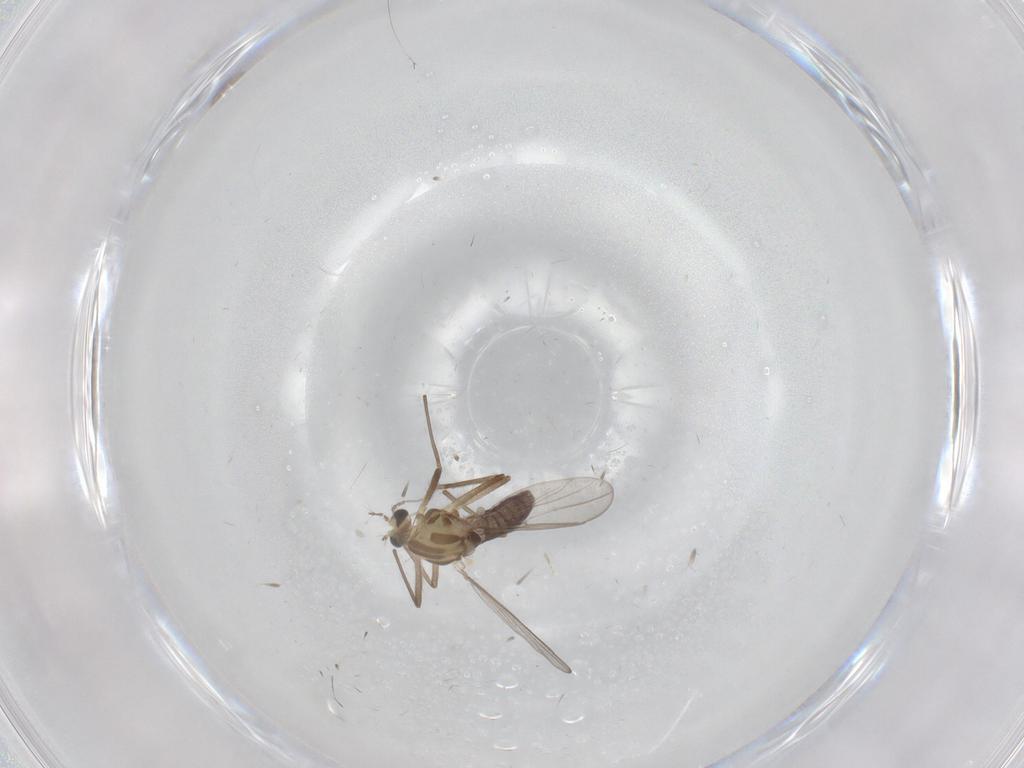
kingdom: Animalia
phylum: Arthropoda
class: Insecta
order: Diptera
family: Chironomidae
